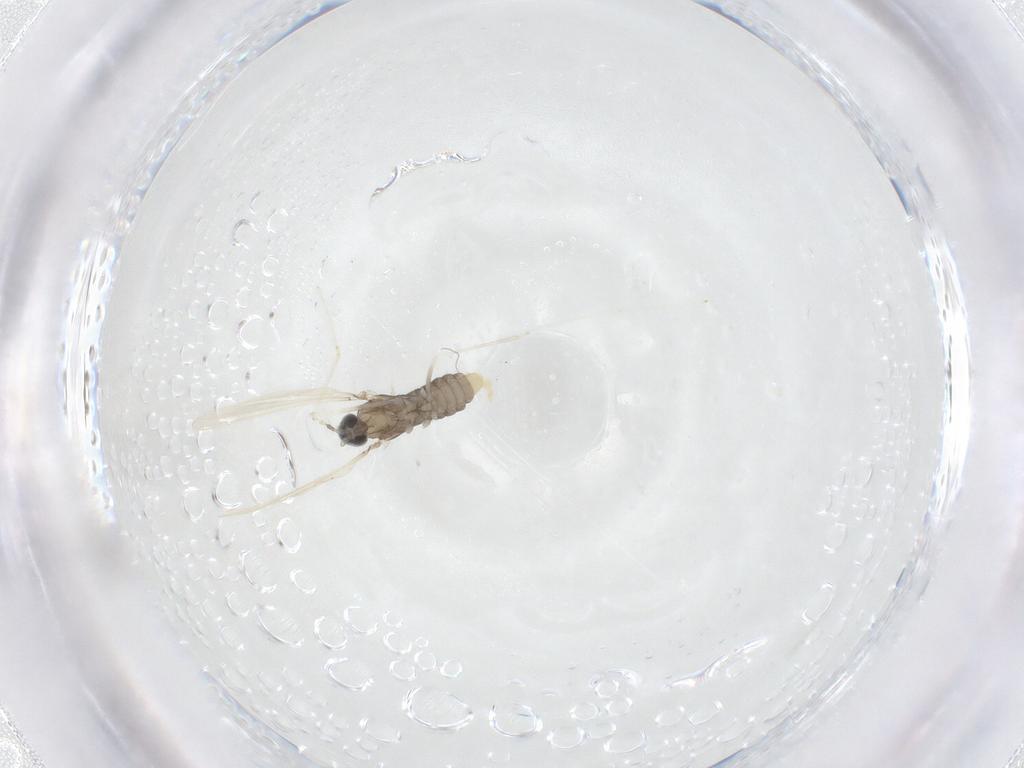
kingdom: Animalia
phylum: Arthropoda
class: Insecta
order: Diptera
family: Cecidomyiidae
